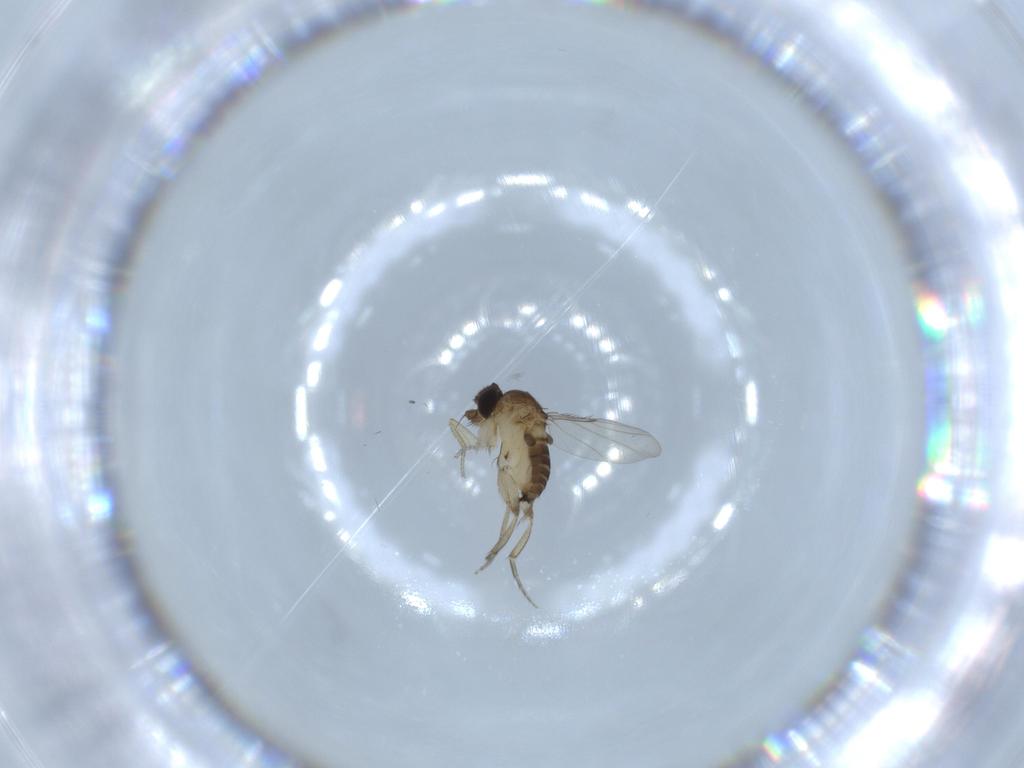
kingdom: Animalia
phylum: Arthropoda
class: Insecta
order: Diptera
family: Phoridae
